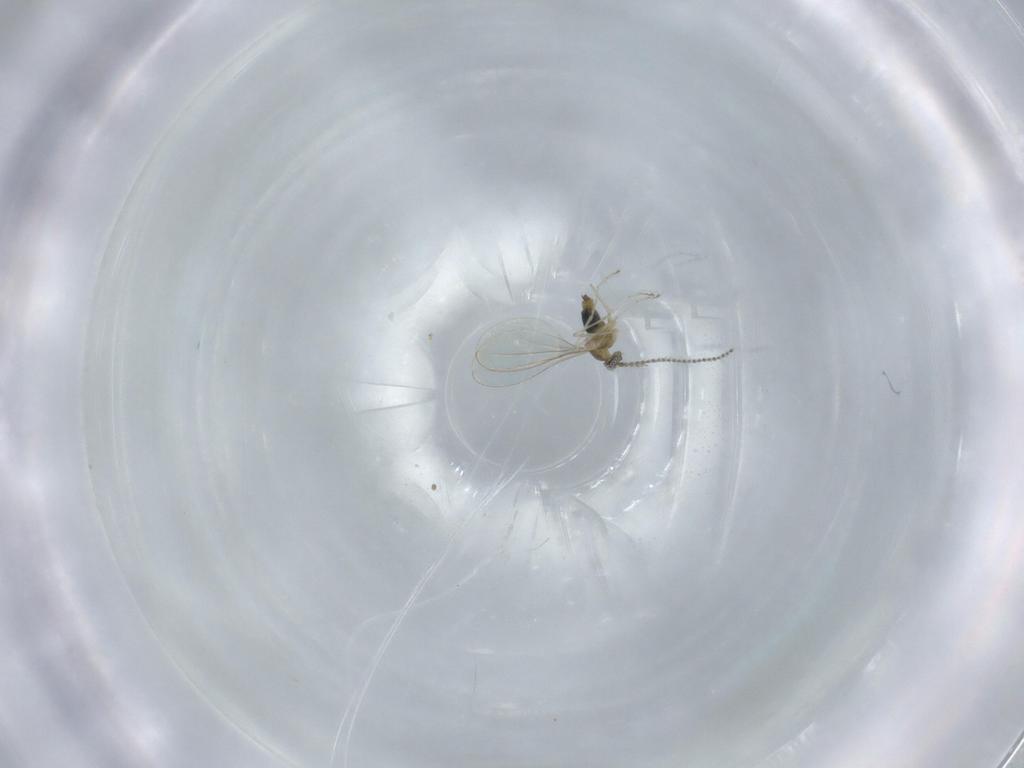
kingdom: Animalia
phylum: Arthropoda
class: Insecta
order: Diptera
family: Cecidomyiidae
